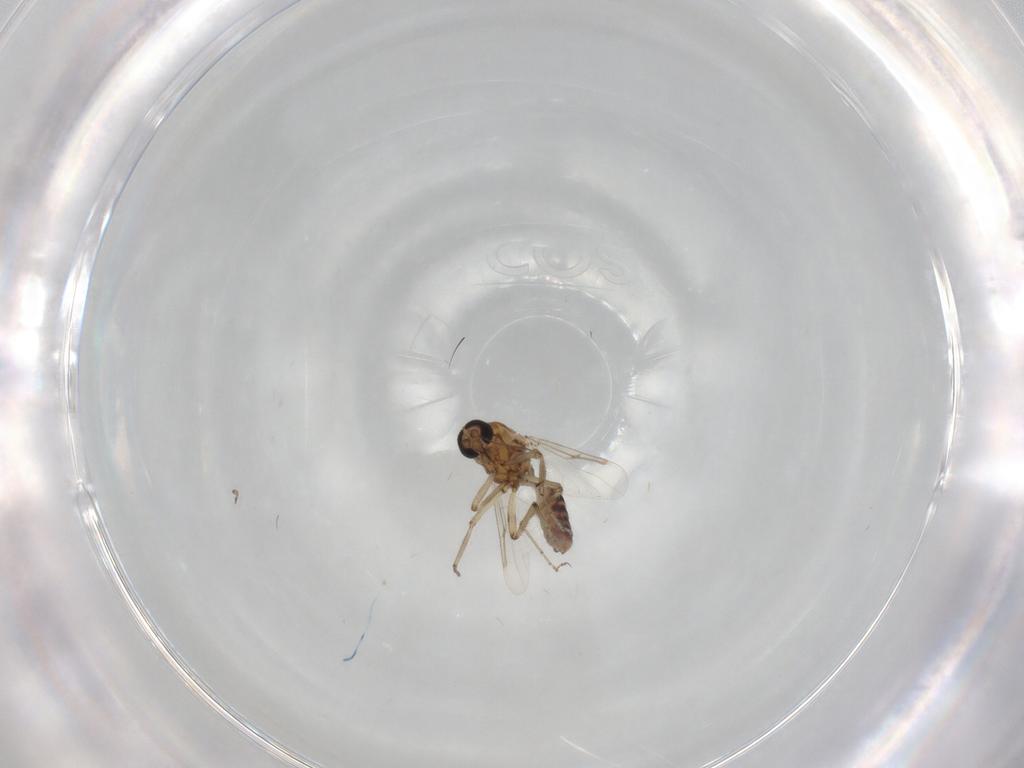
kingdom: Animalia
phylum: Arthropoda
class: Insecta
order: Diptera
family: Ceratopogonidae
